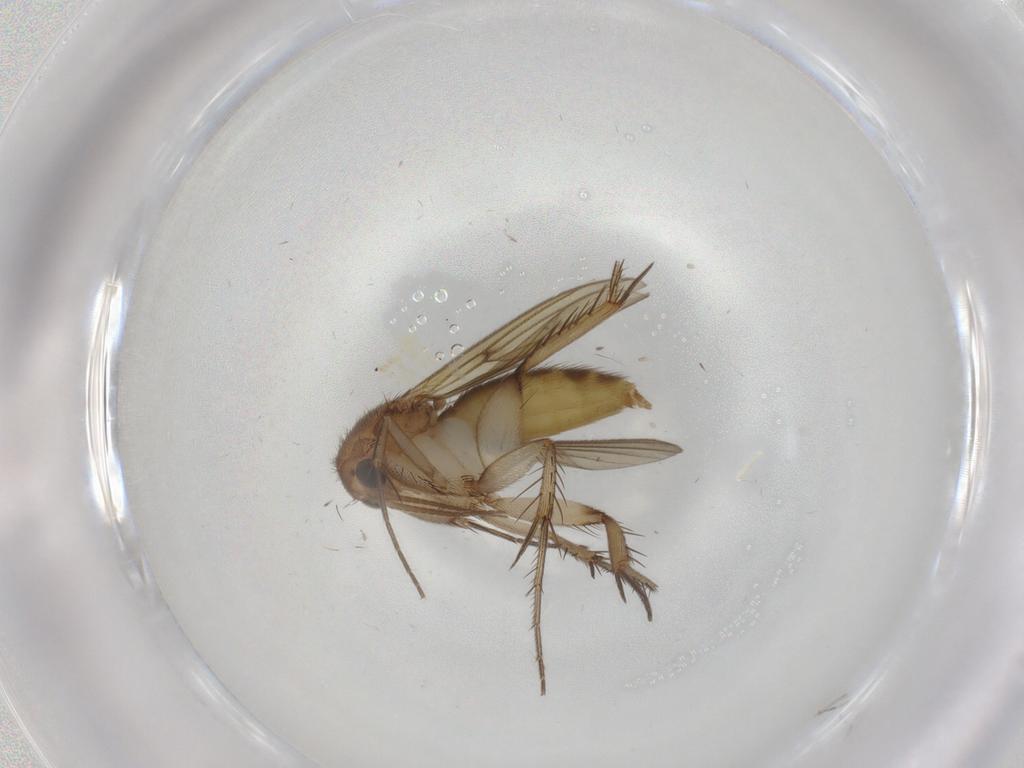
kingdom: Animalia
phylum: Arthropoda
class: Insecta
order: Diptera
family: Mycetophilidae
